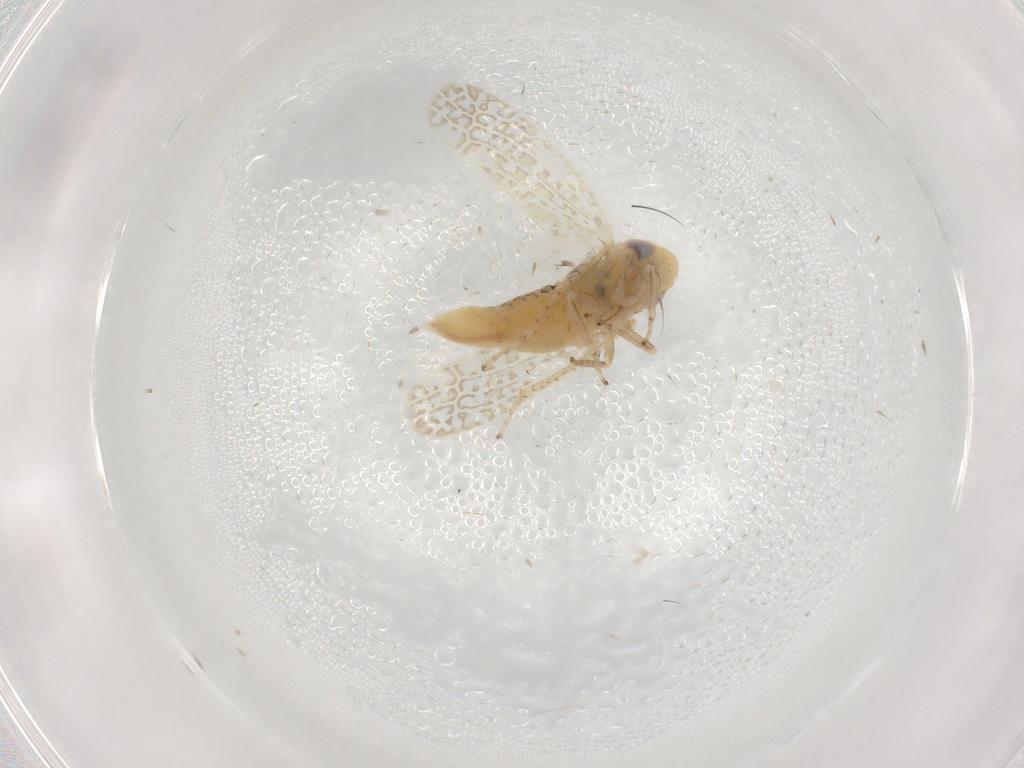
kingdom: Animalia
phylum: Arthropoda
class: Insecta
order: Hemiptera
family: Cicadellidae
